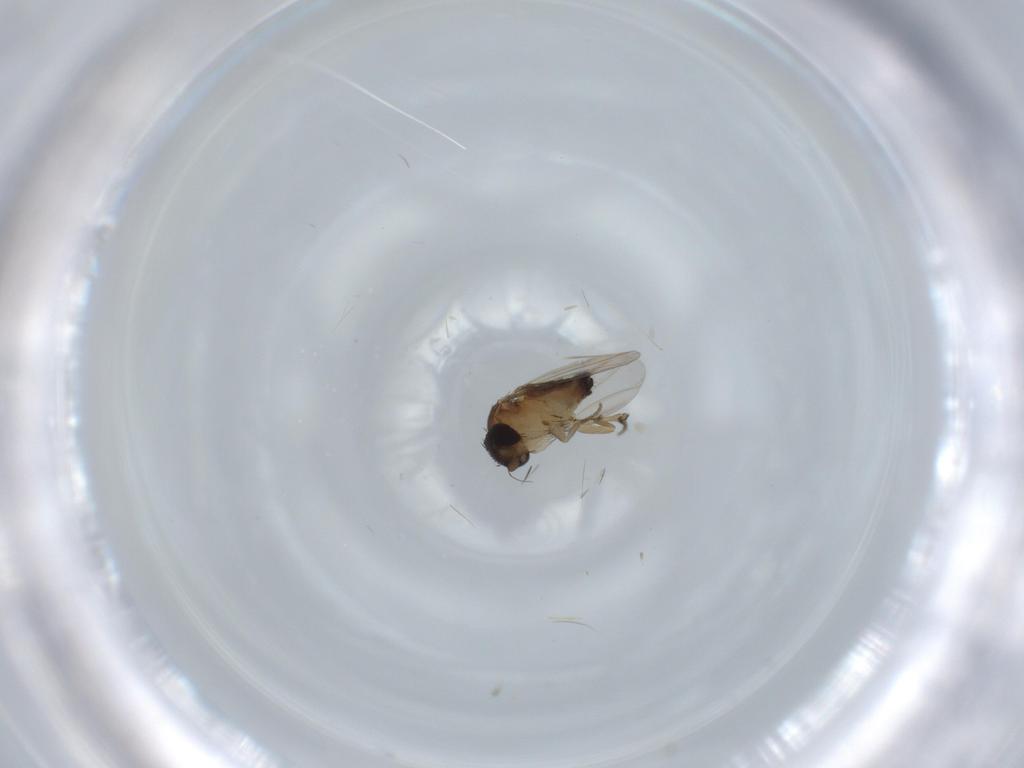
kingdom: Animalia
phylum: Arthropoda
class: Insecta
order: Diptera
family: Phoridae
